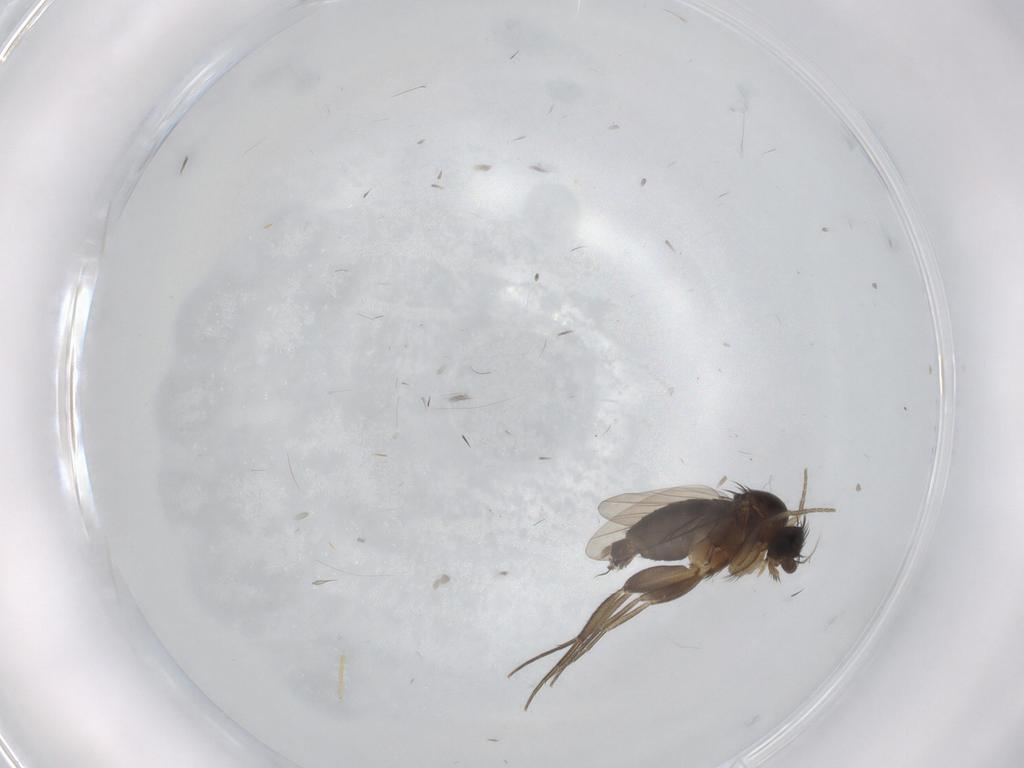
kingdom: Animalia
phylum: Arthropoda
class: Insecta
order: Diptera
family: Phoridae
